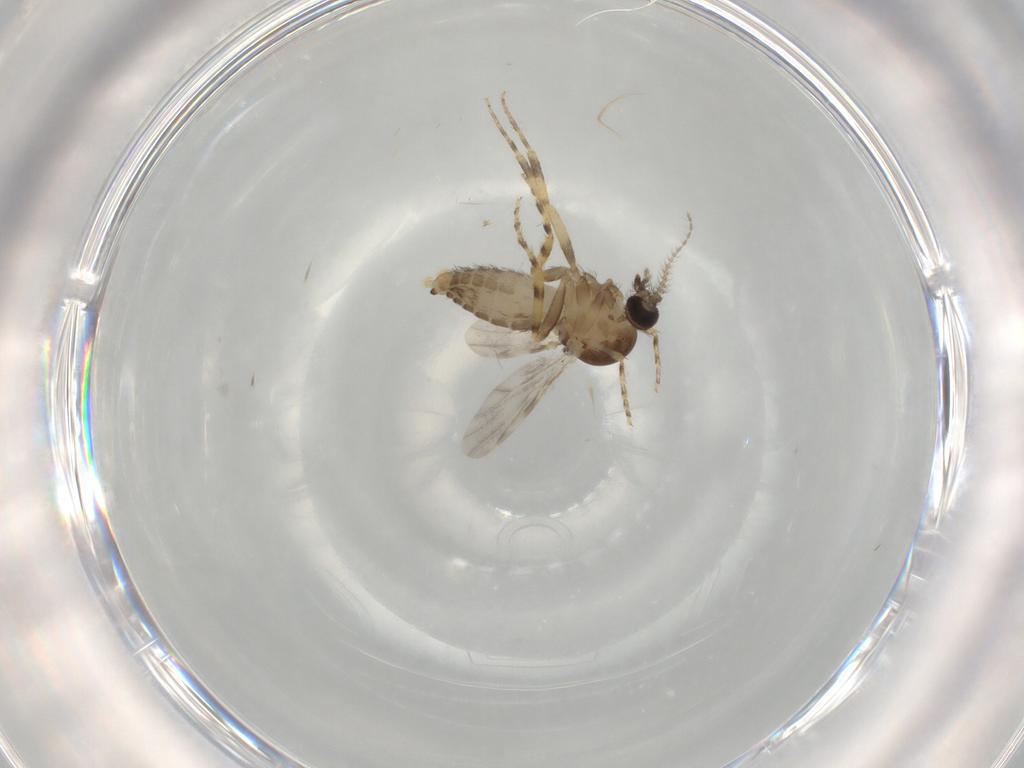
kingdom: Animalia
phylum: Arthropoda
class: Insecta
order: Diptera
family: Ceratopogonidae
